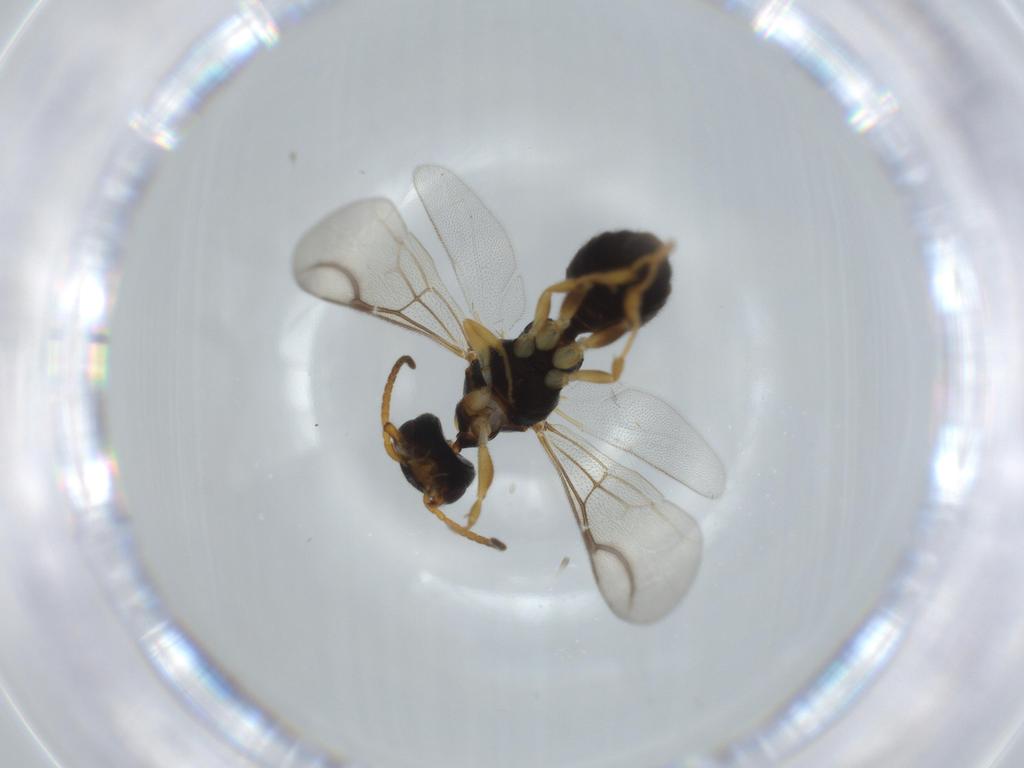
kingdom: Animalia
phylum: Arthropoda
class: Insecta
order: Hymenoptera
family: Bethylidae
